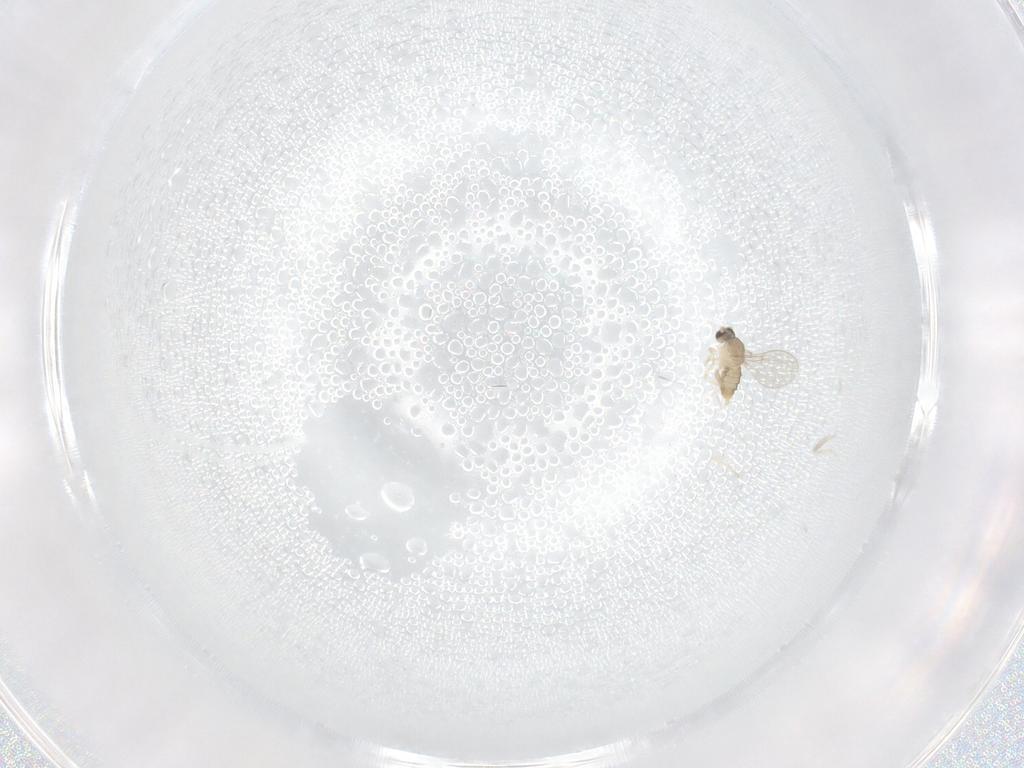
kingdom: Animalia
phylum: Arthropoda
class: Insecta
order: Diptera
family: Cecidomyiidae
